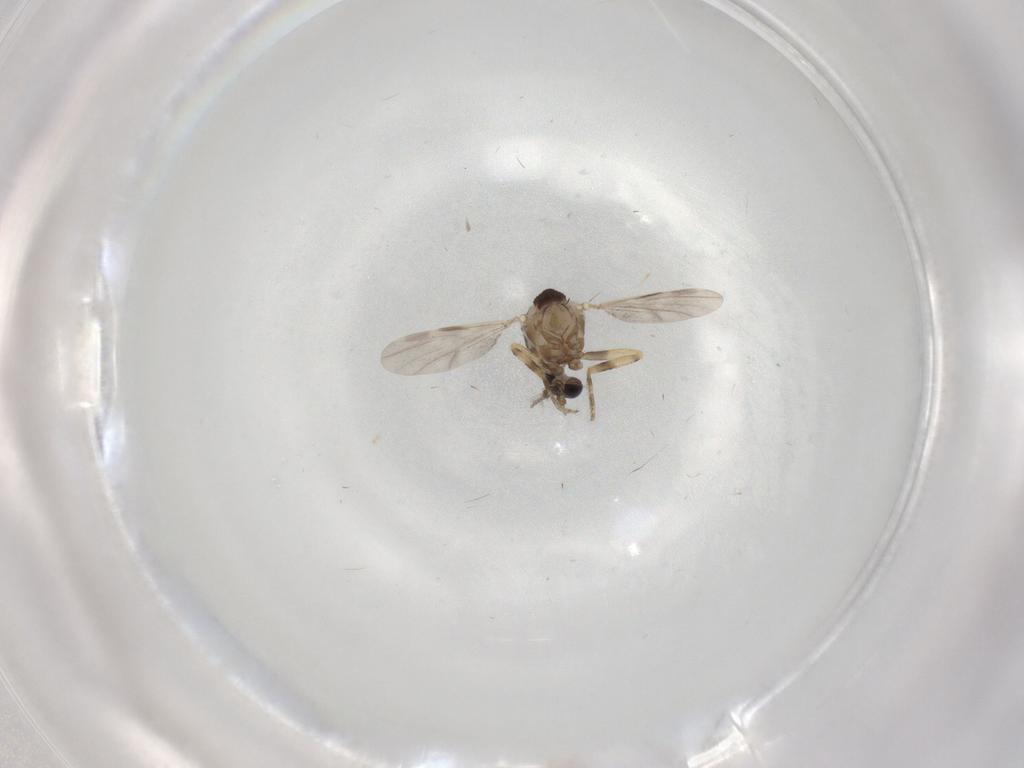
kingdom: Animalia
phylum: Arthropoda
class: Insecta
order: Diptera
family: Ceratopogonidae
